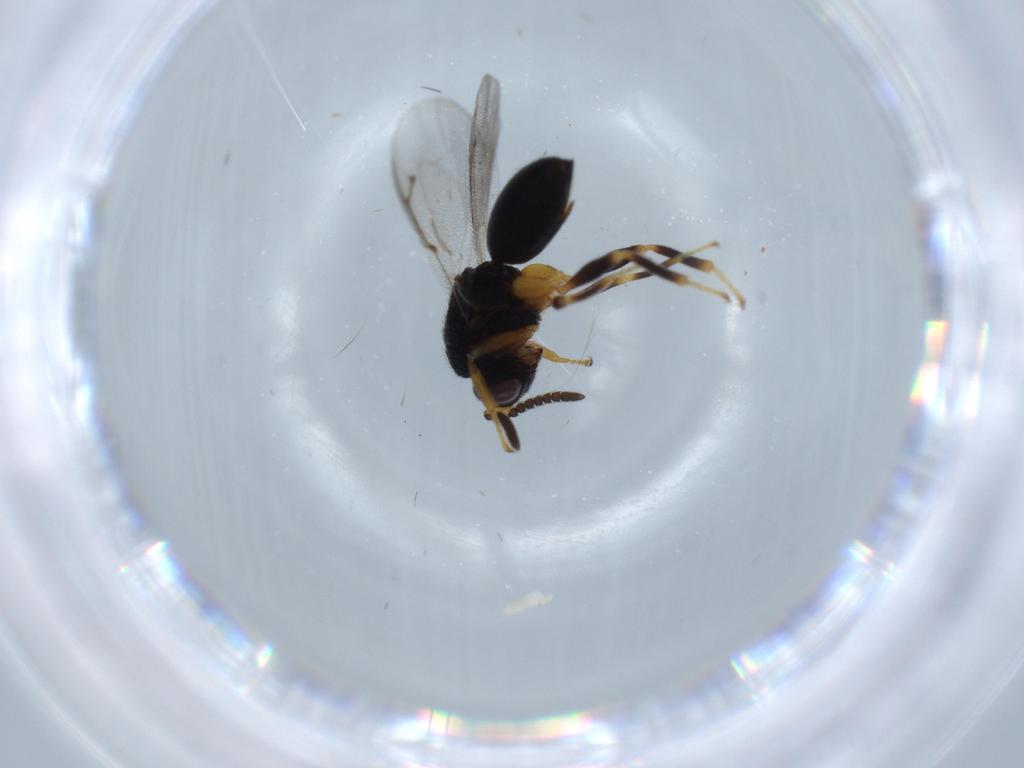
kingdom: Animalia
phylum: Arthropoda
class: Insecta
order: Hymenoptera
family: Eurytomidae
